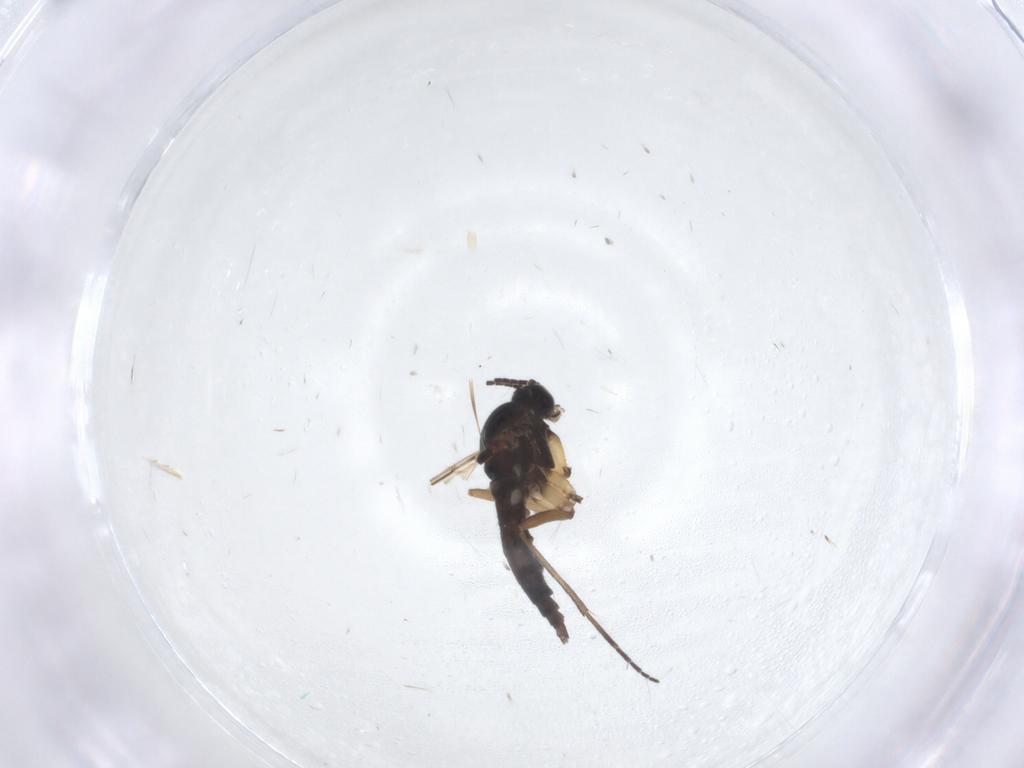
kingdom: Animalia
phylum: Arthropoda
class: Insecta
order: Diptera
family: Sciaridae
